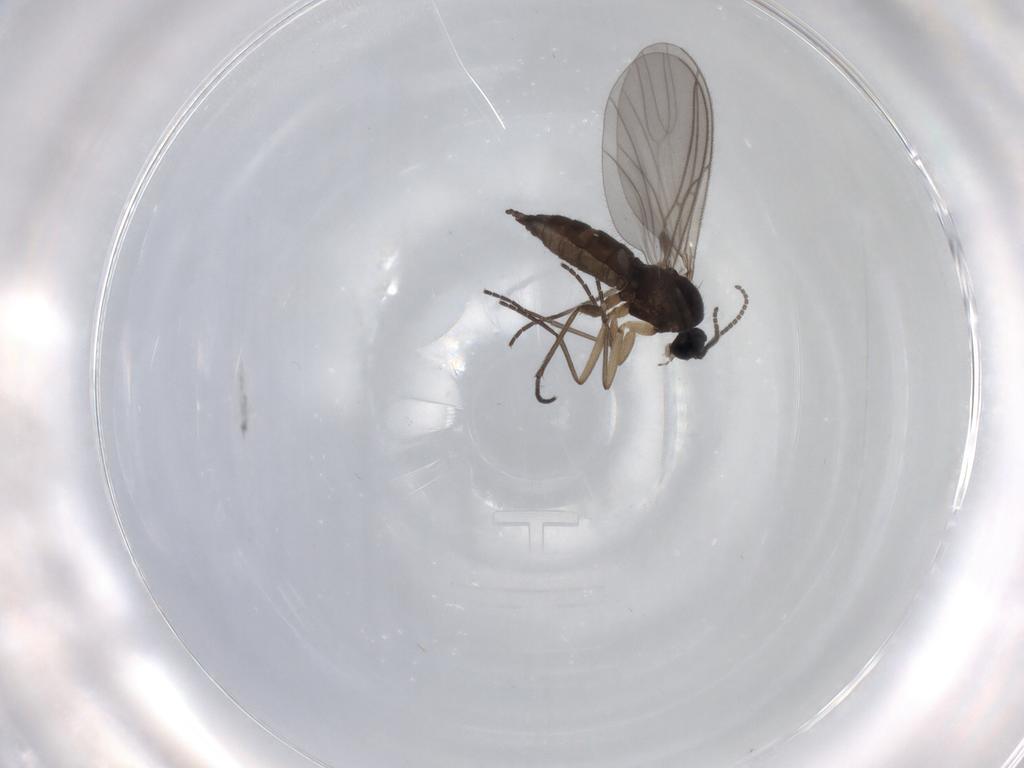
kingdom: Animalia
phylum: Arthropoda
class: Insecta
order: Diptera
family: Sciaridae
